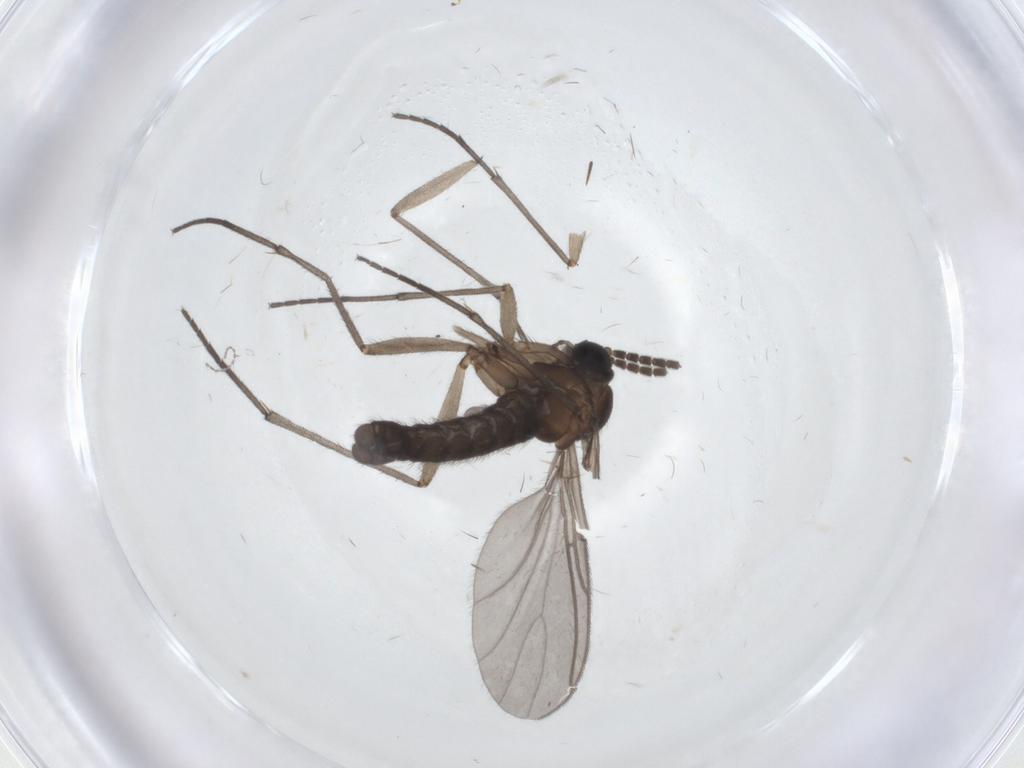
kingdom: Animalia
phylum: Arthropoda
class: Insecta
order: Diptera
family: Sciaridae
